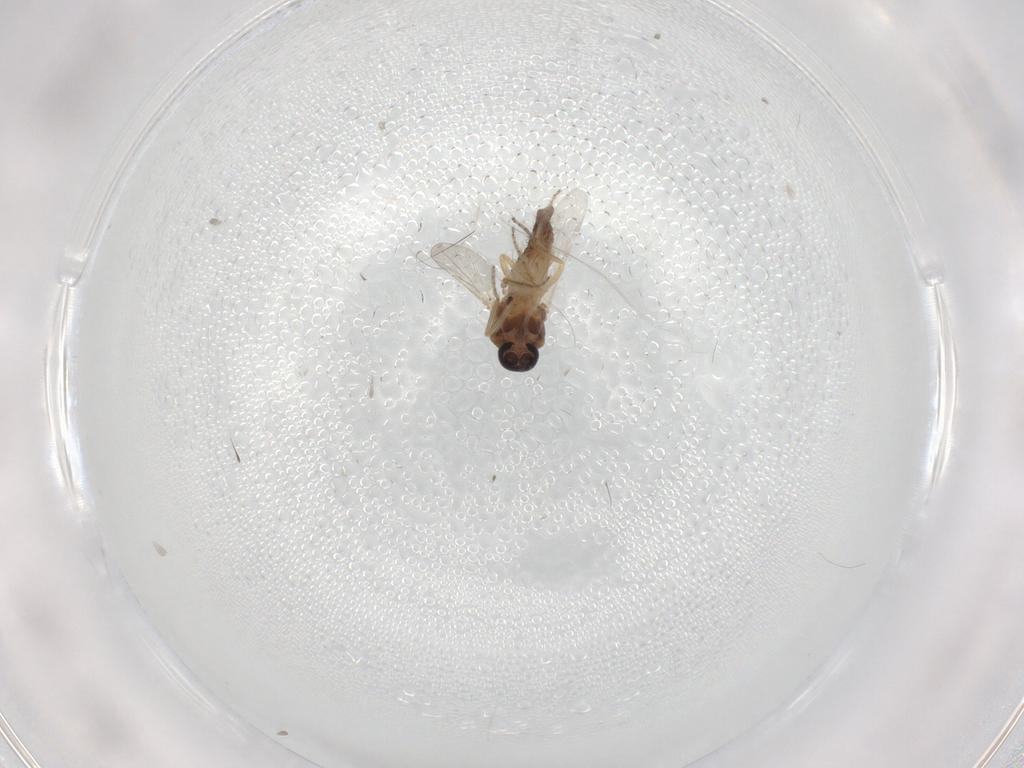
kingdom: Animalia
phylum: Arthropoda
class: Insecta
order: Diptera
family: Ceratopogonidae
